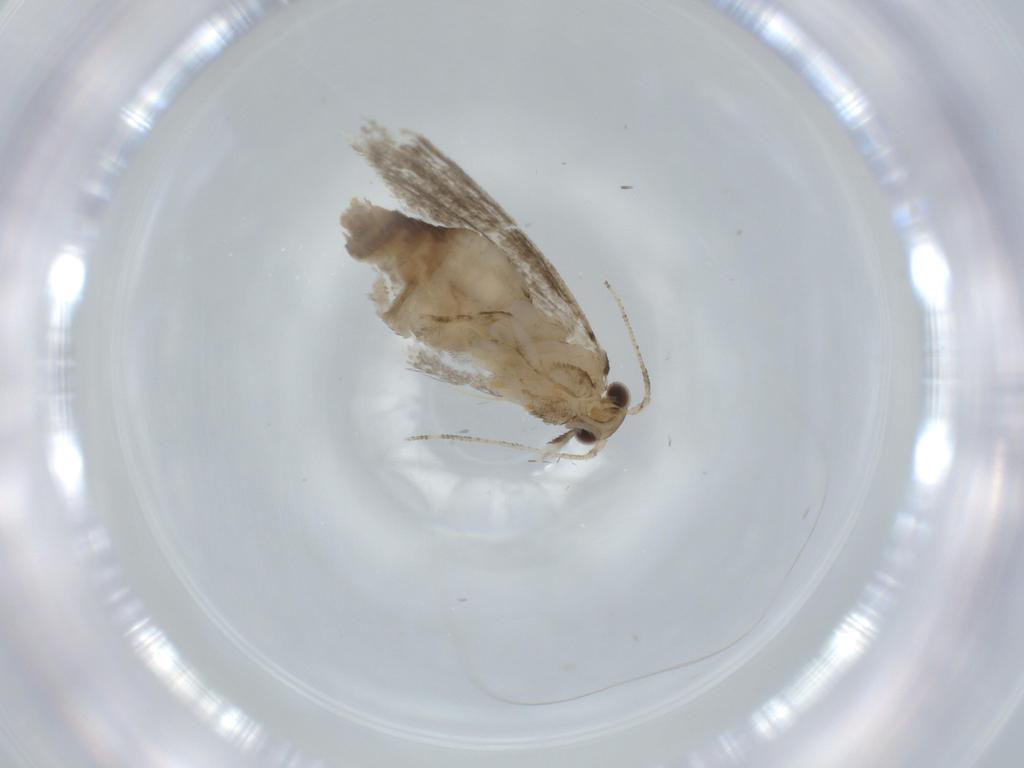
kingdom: Animalia
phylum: Arthropoda
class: Insecta
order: Lepidoptera
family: Tineidae
